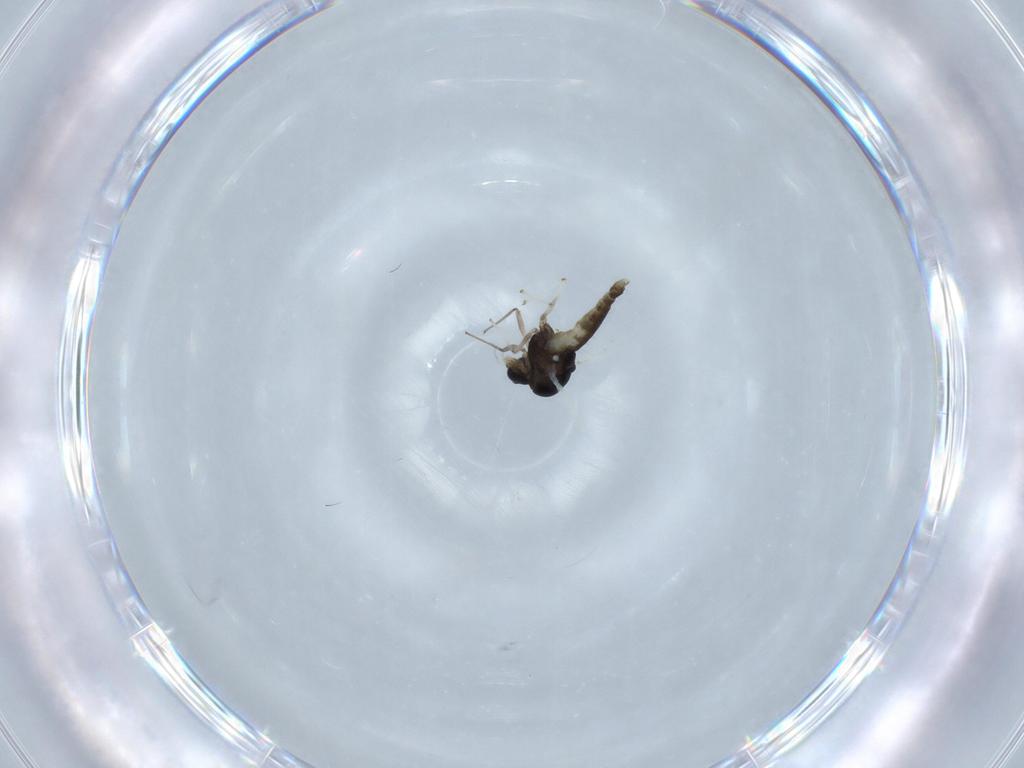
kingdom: Animalia
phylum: Arthropoda
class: Insecta
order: Diptera
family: Chironomidae
